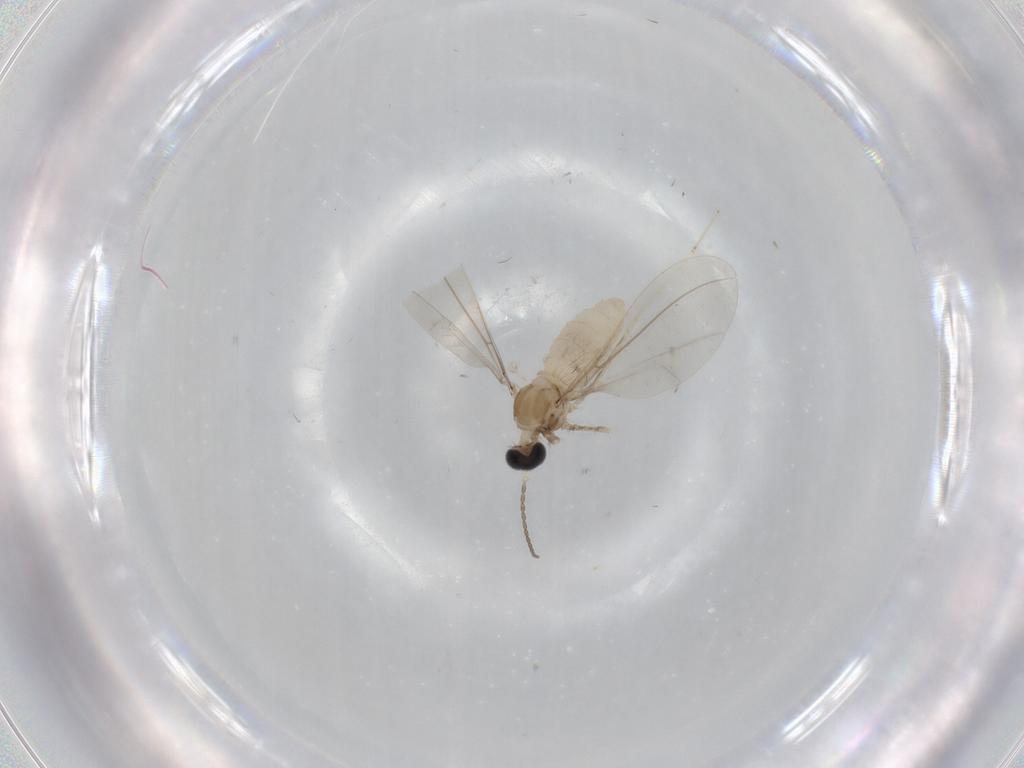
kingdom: Animalia
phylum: Arthropoda
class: Insecta
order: Diptera
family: Cecidomyiidae
